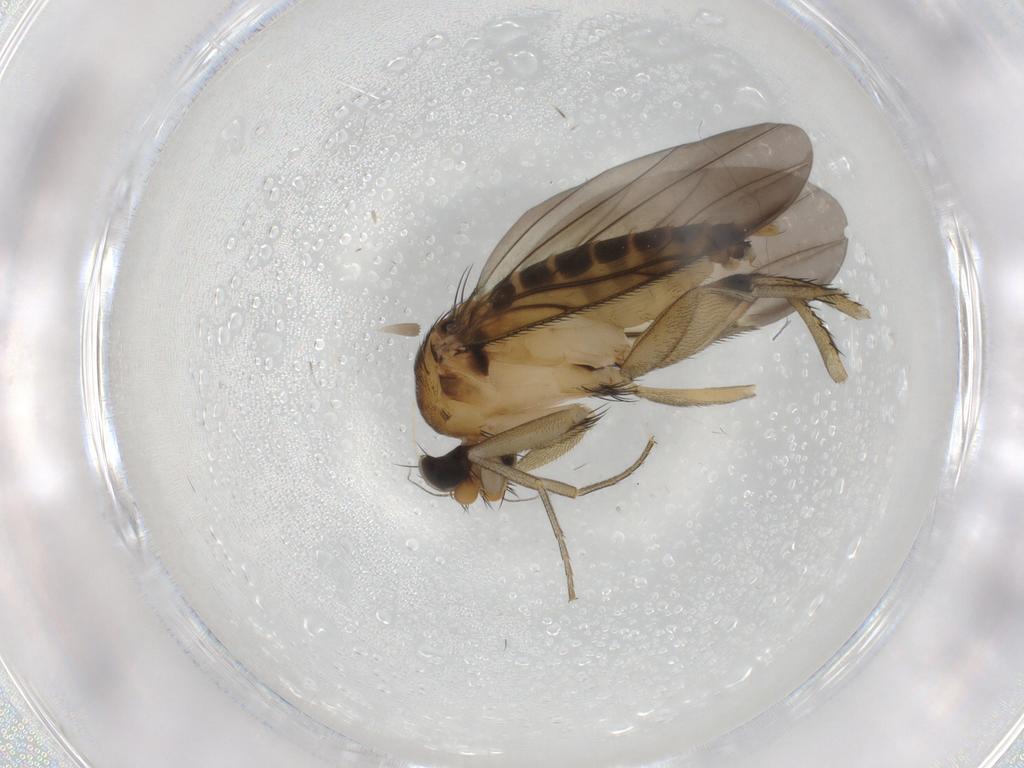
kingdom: Animalia
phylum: Arthropoda
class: Insecta
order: Diptera
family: Phoridae
